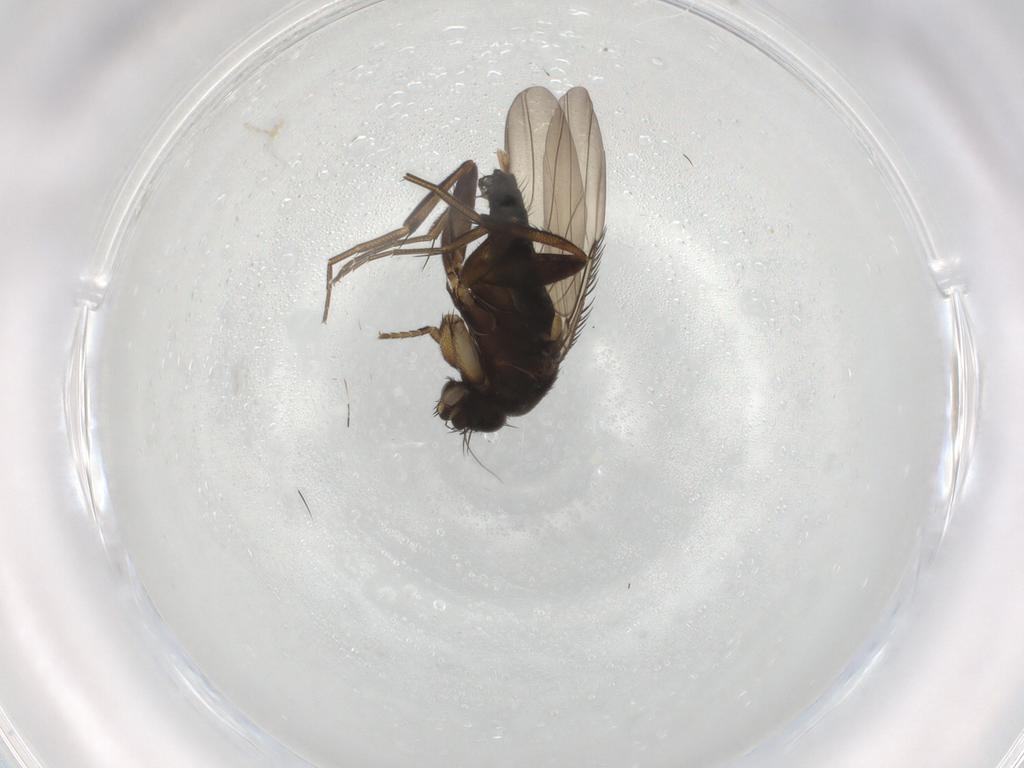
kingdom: Animalia
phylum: Arthropoda
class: Insecta
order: Diptera
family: Phoridae
